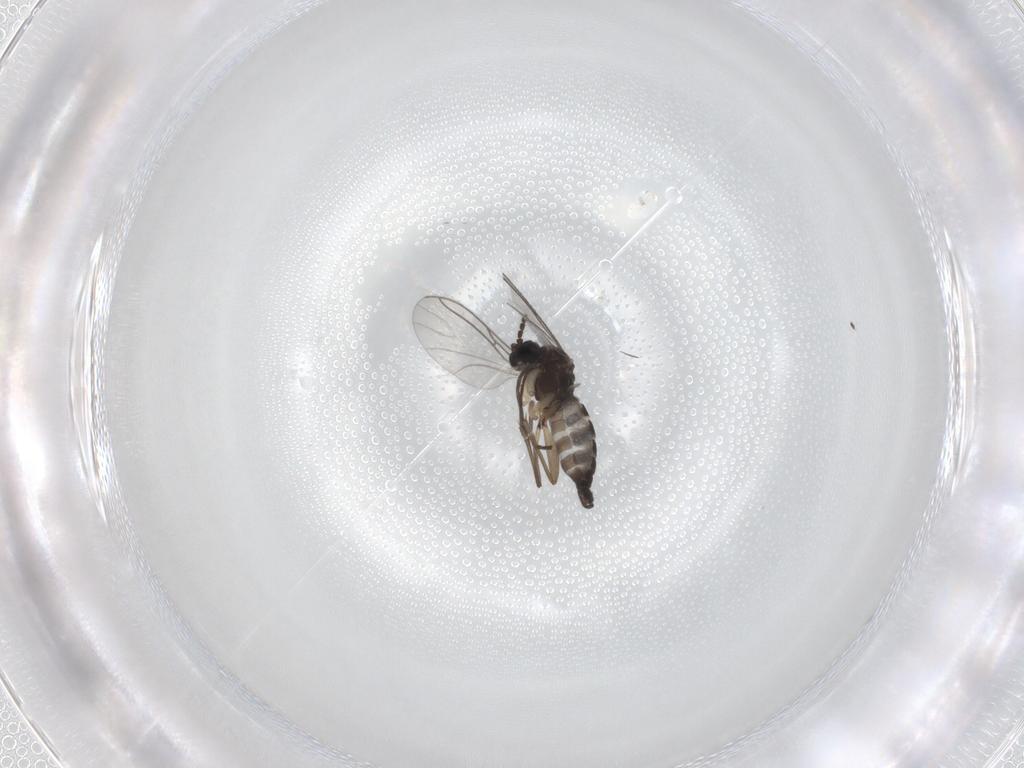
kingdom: Animalia
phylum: Arthropoda
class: Insecta
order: Diptera
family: Sciaridae
